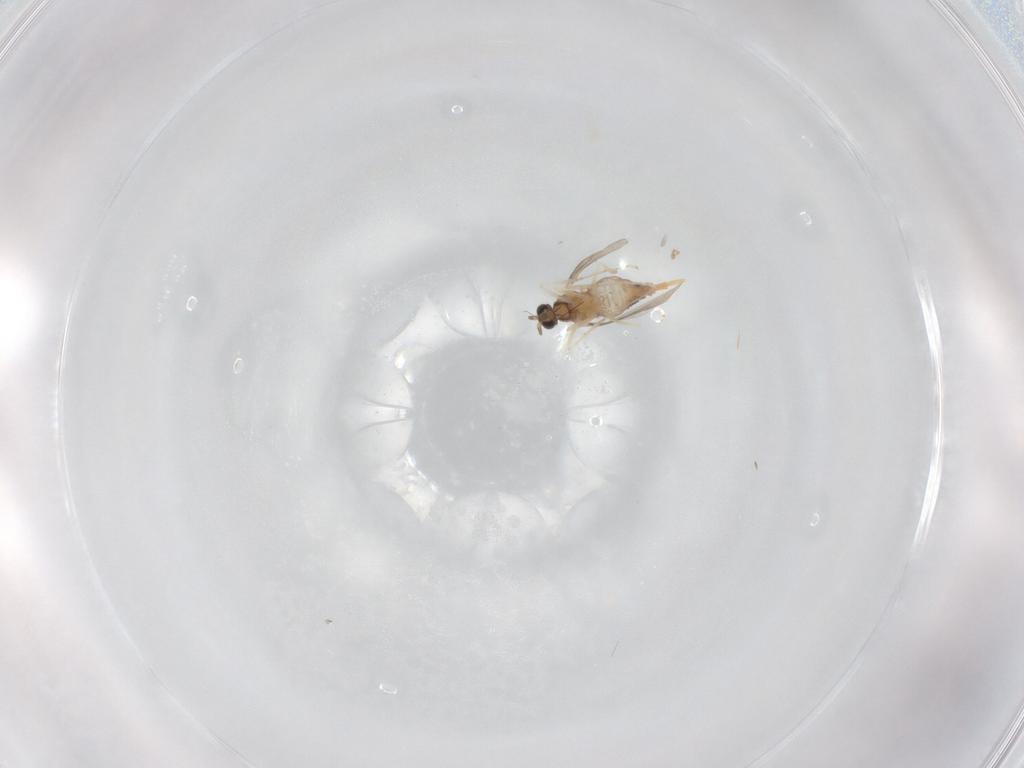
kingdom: Animalia
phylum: Arthropoda
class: Insecta
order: Diptera
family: Cecidomyiidae
